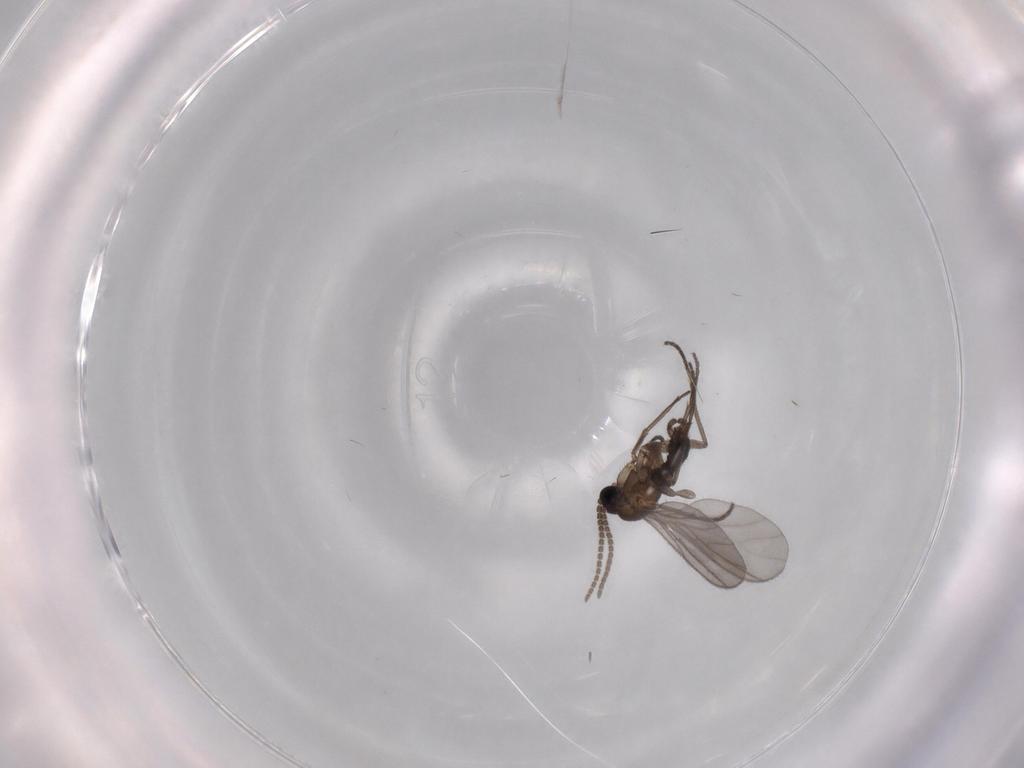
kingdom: Animalia
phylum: Arthropoda
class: Insecta
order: Diptera
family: Sciaridae
